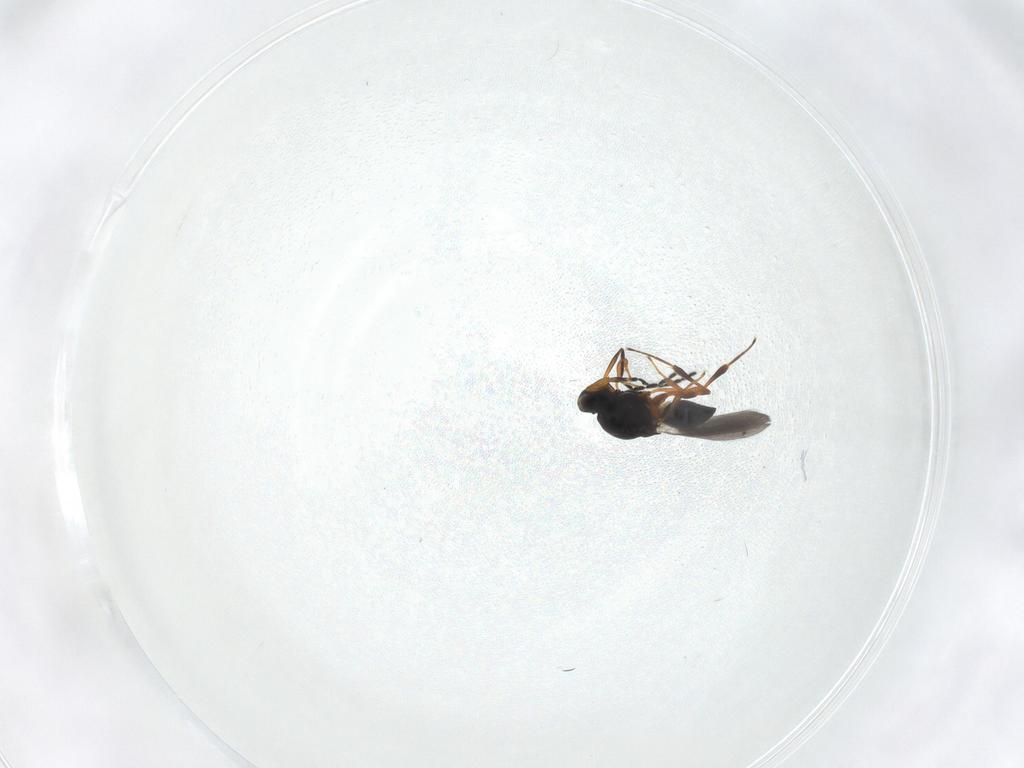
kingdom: Animalia
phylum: Arthropoda
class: Insecta
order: Hymenoptera
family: Platygastridae
